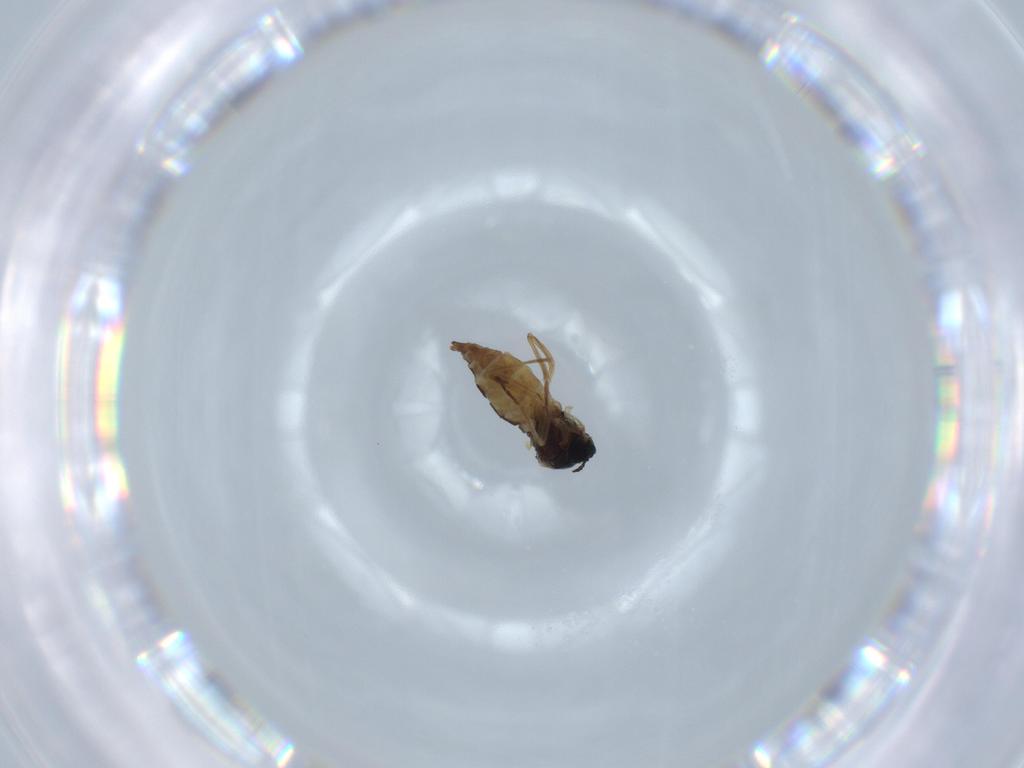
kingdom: Animalia
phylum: Arthropoda
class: Insecta
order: Diptera
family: Sciaridae
